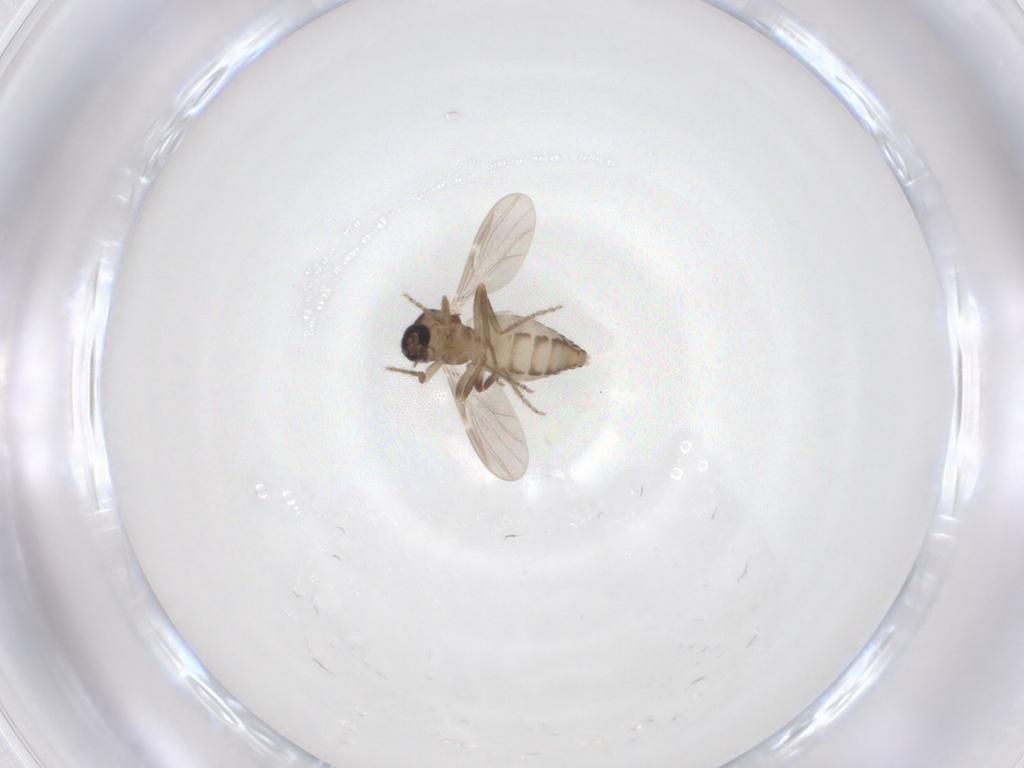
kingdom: Animalia
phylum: Arthropoda
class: Insecta
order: Diptera
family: Ceratopogonidae
